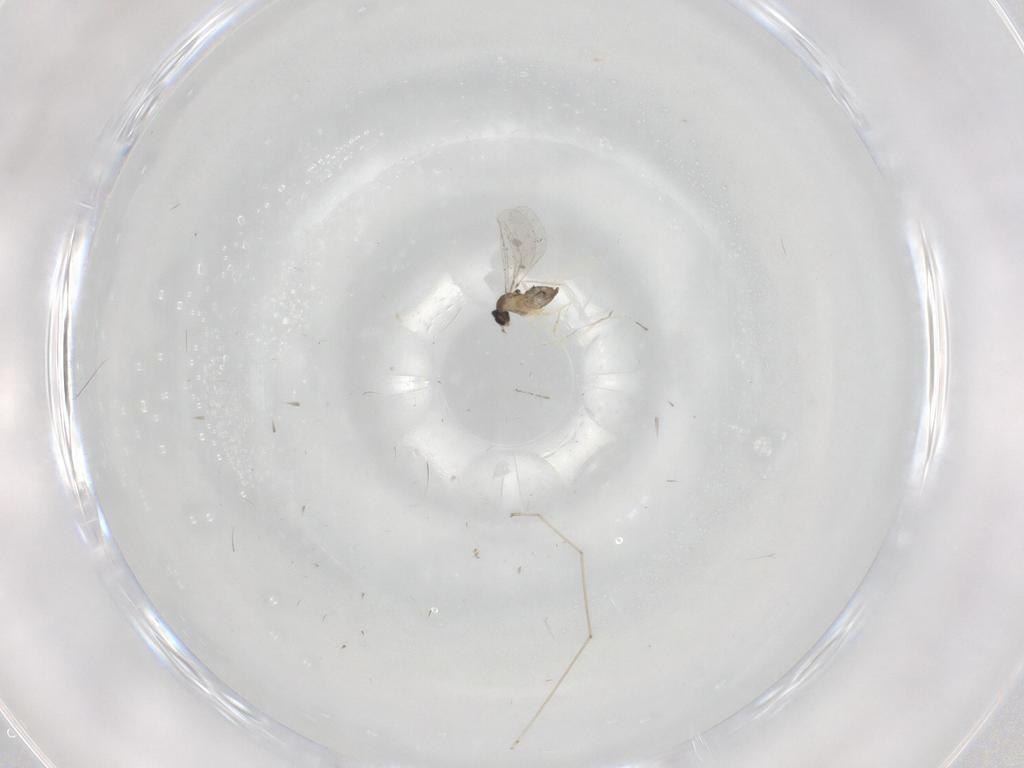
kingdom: Animalia
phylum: Arthropoda
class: Insecta
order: Diptera
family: Cecidomyiidae
